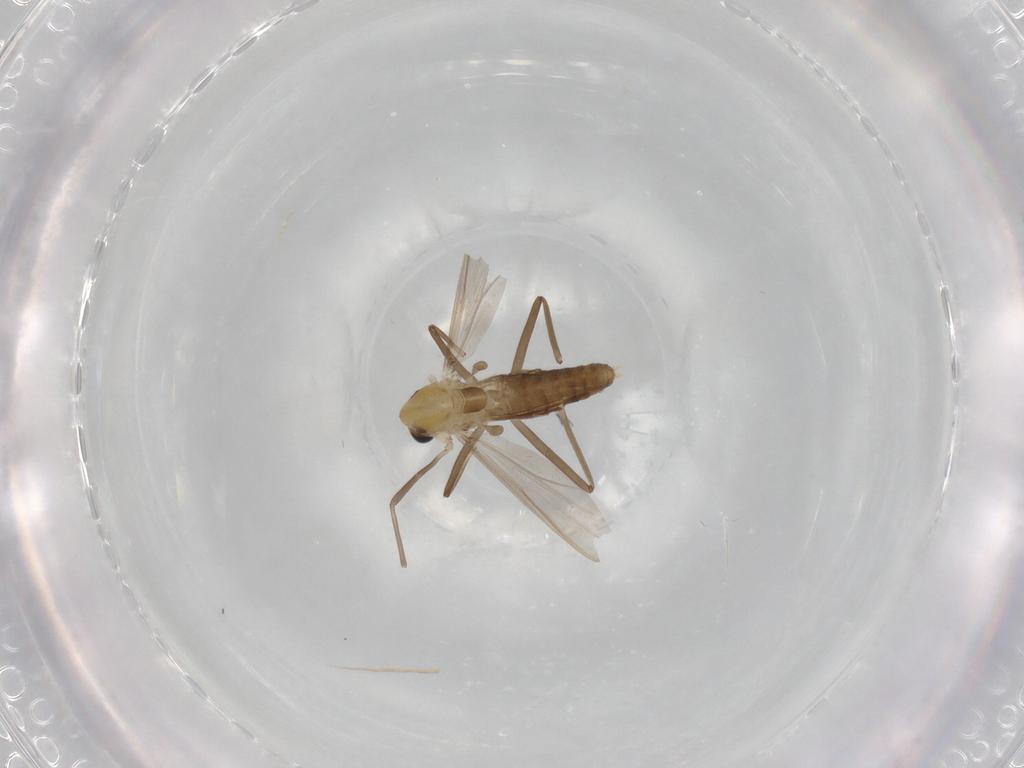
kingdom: Animalia
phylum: Arthropoda
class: Insecta
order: Diptera
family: Chironomidae
